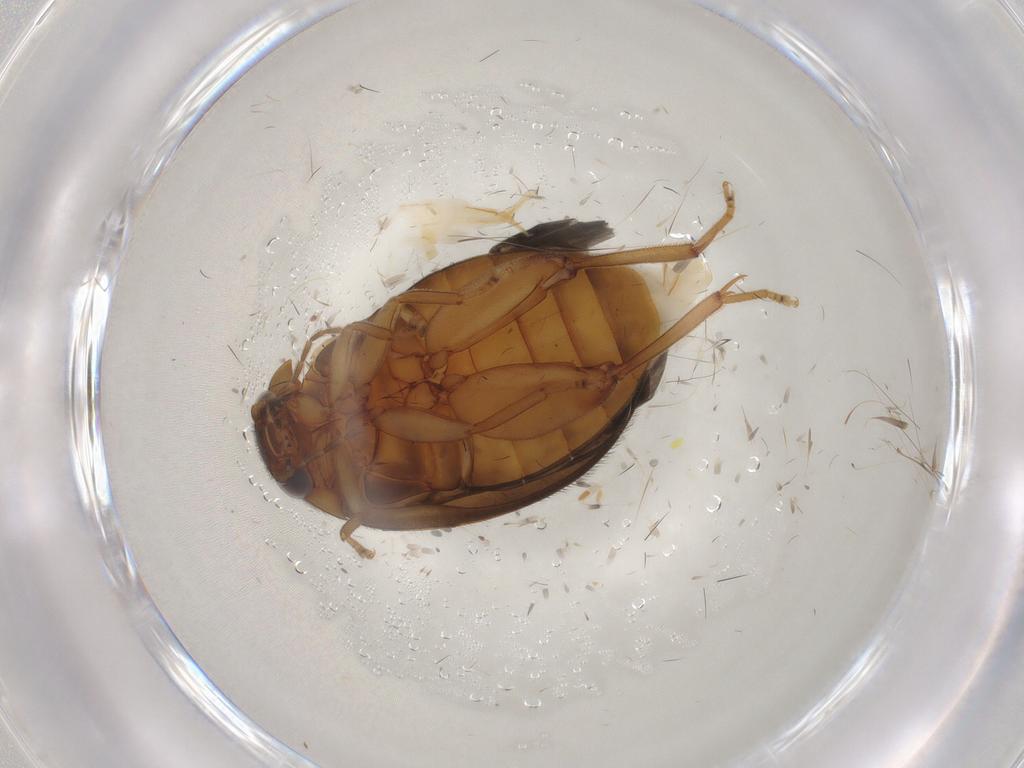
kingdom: Animalia
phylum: Arthropoda
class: Insecta
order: Coleoptera
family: Scirtidae
